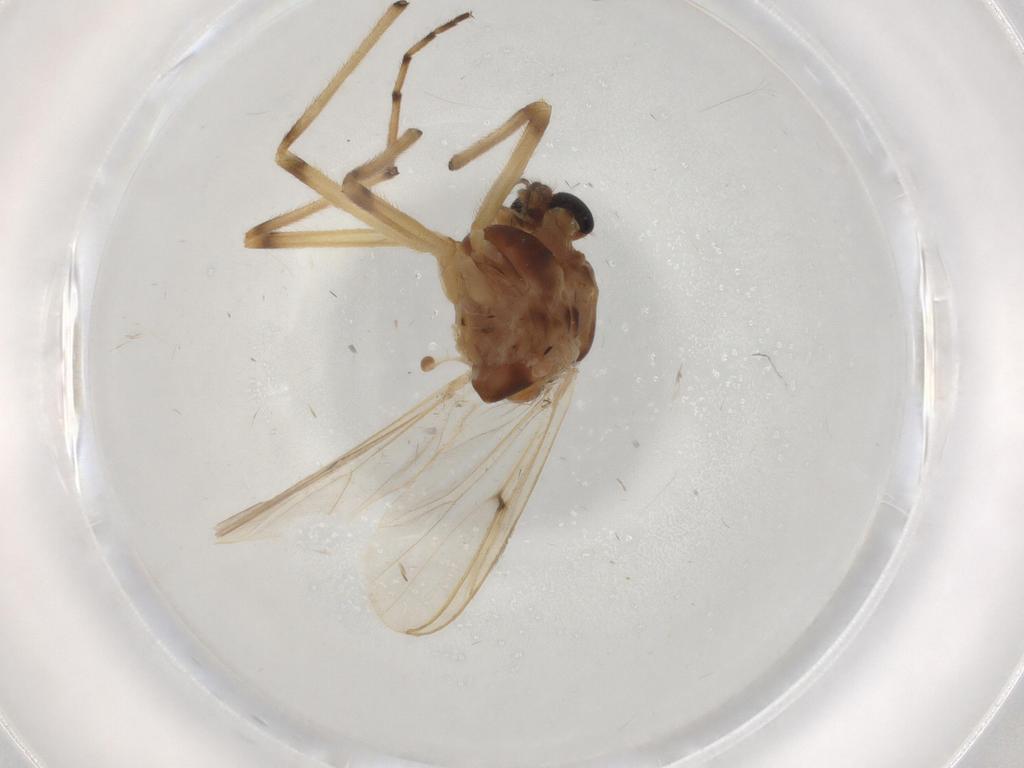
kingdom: Animalia
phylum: Arthropoda
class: Insecta
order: Diptera
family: Chironomidae
